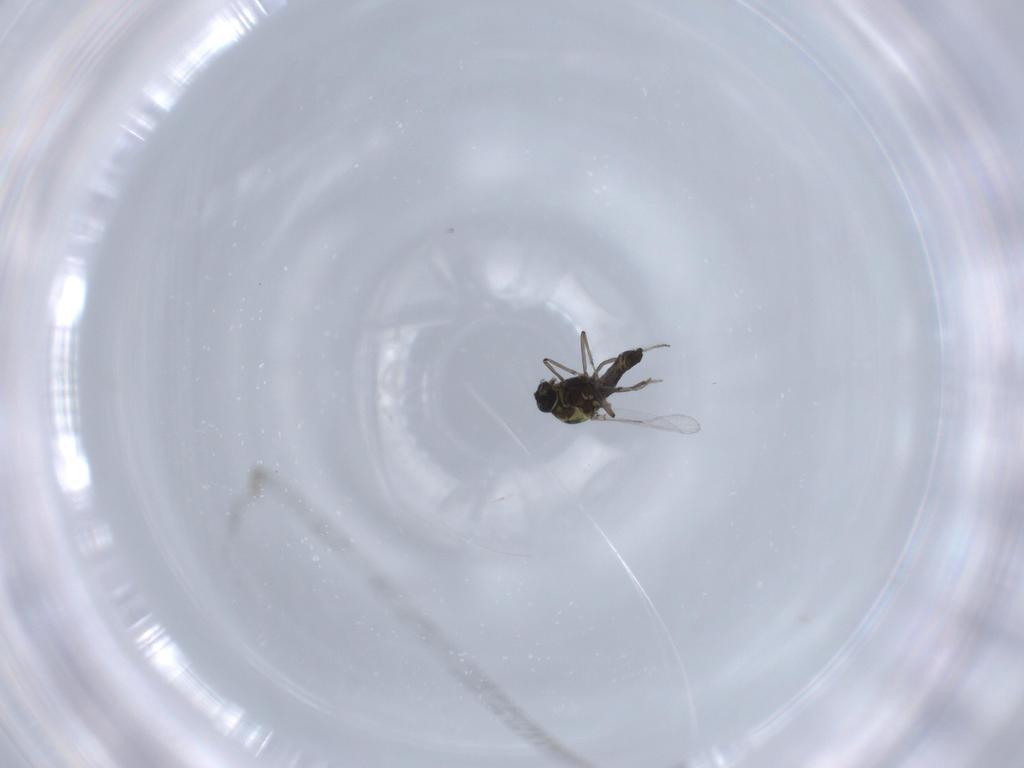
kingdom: Animalia
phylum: Arthropoda
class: Insecta
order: Diptera
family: Ceratopogonidae
